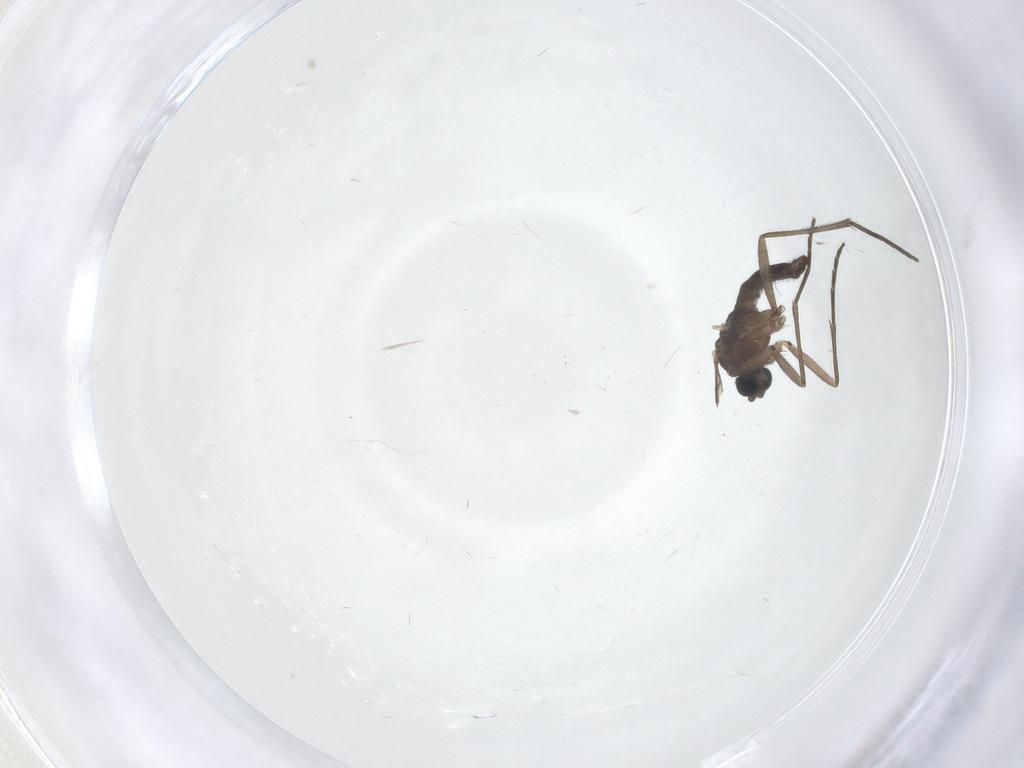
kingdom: Animalia
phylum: Arthropoda
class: Insecta
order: Diptera
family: Sciaridae
